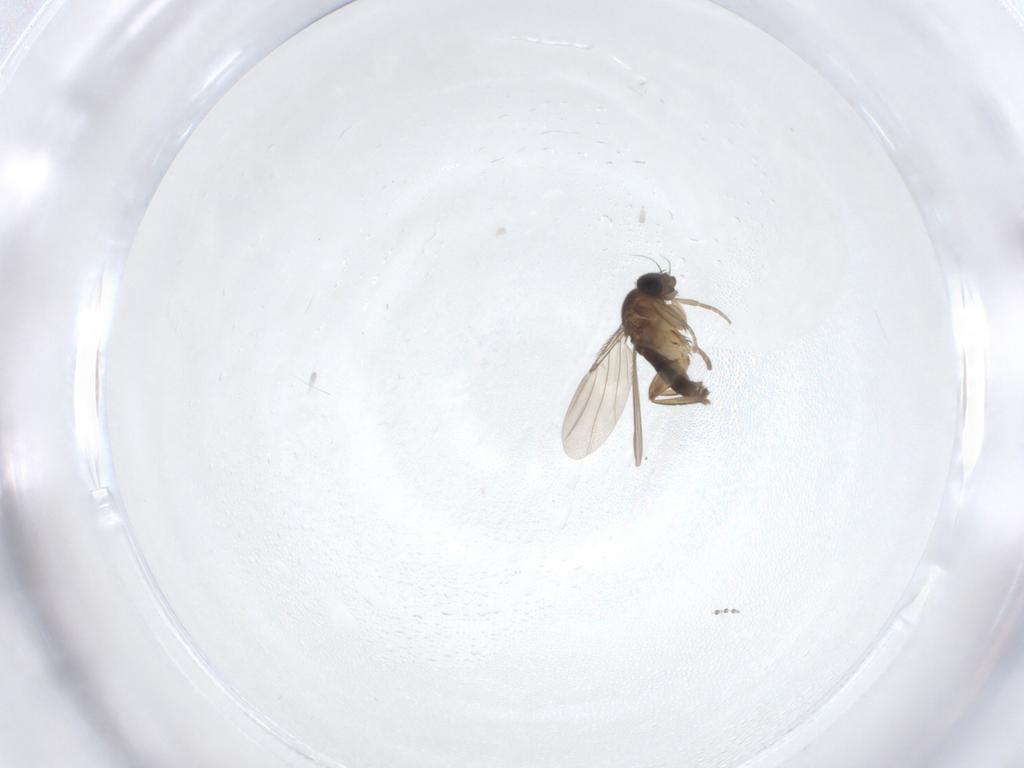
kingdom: Animalia
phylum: Arthropoda
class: Insecta
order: Diptera
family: Phoridae
